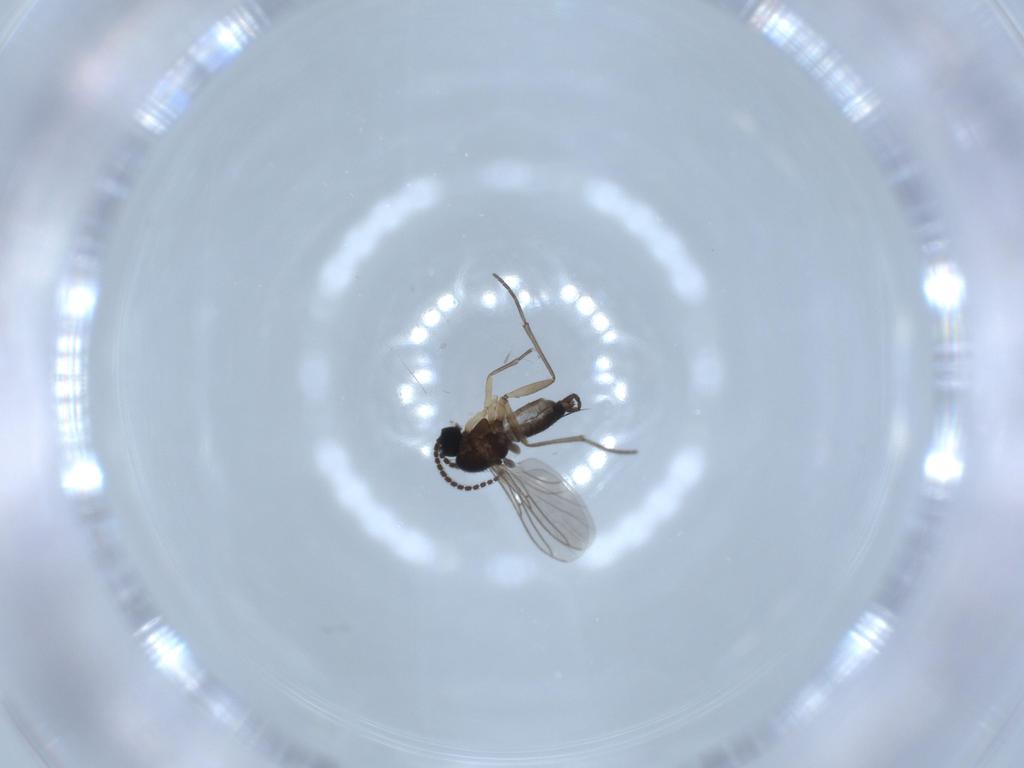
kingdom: Animalia
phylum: Arthropoda
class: Insecta
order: Diptera
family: Sciaridae
